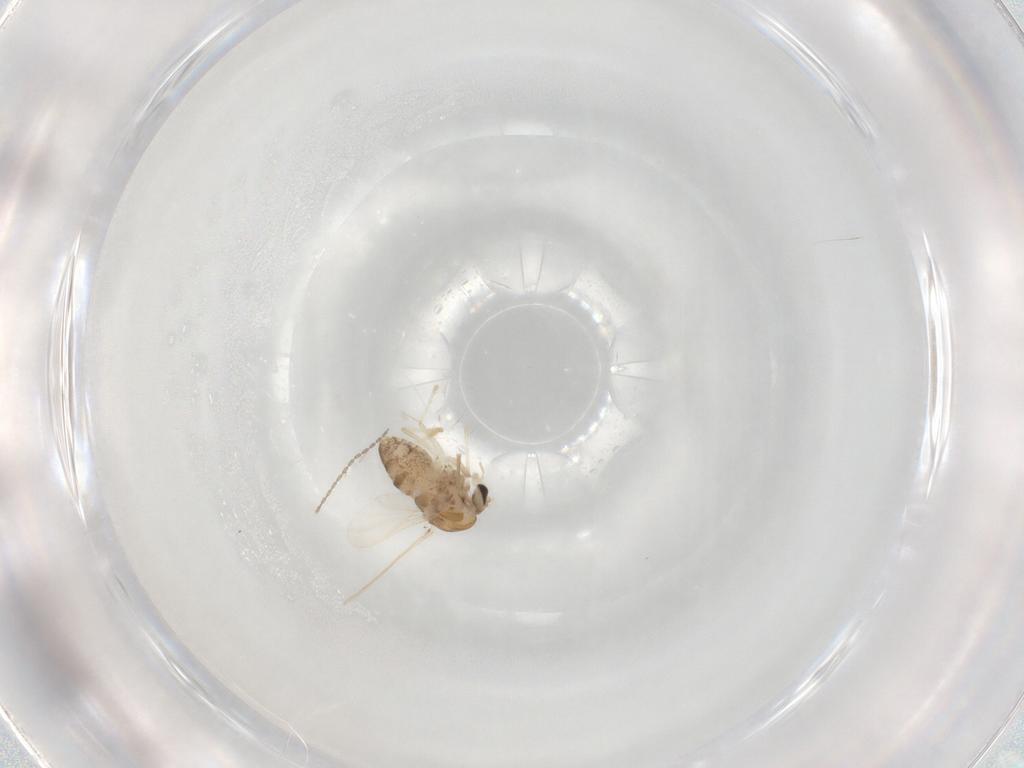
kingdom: Animalia
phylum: Arthropoda
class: Insecta
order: Diptera
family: Chironomidae
